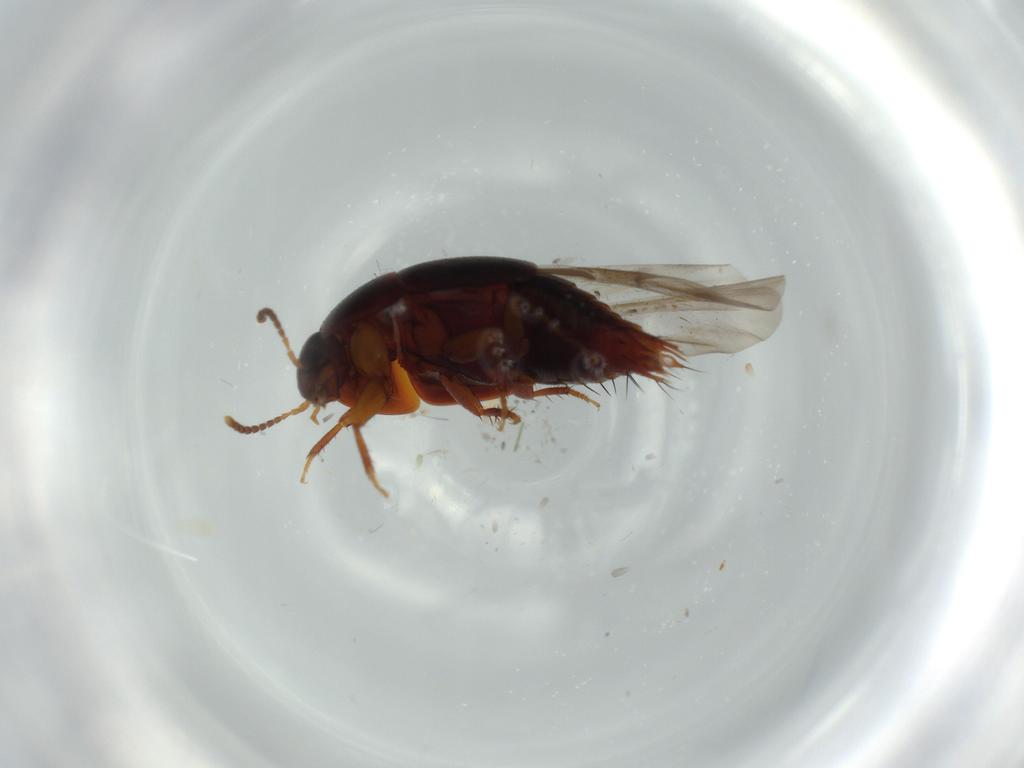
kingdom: Animalia
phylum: Arthropoda
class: Insecta
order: Coleoptera
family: Staphylinidae
